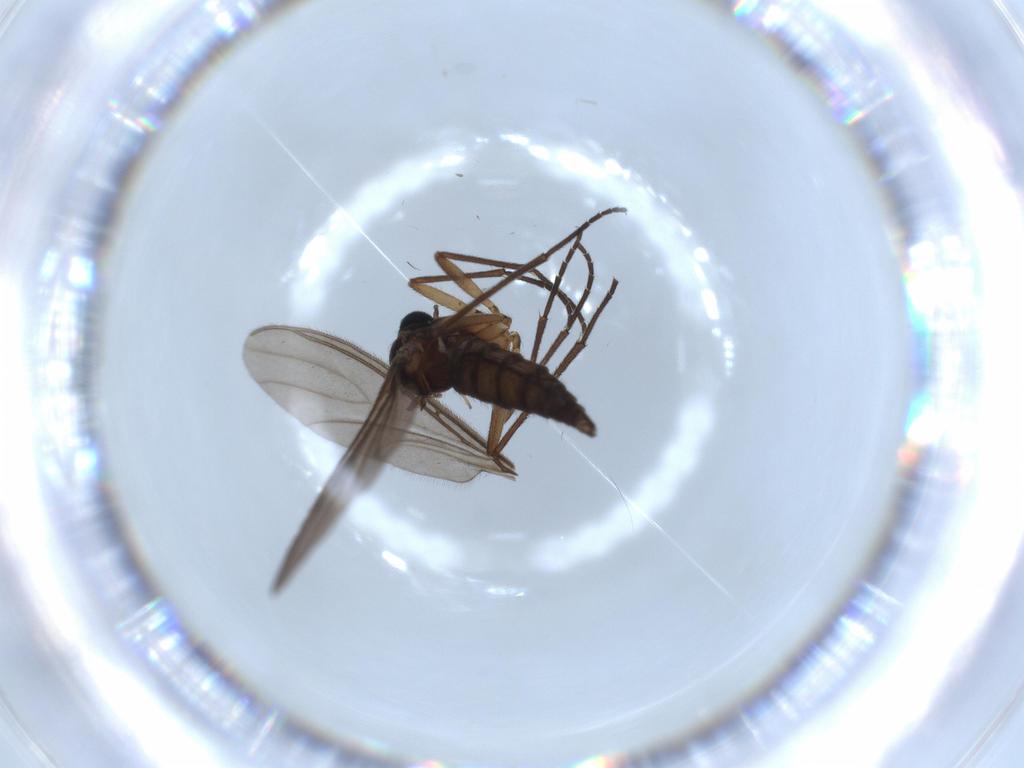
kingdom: Animalia
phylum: Arthropoda
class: Insecta
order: Diptera
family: Sciaridae
